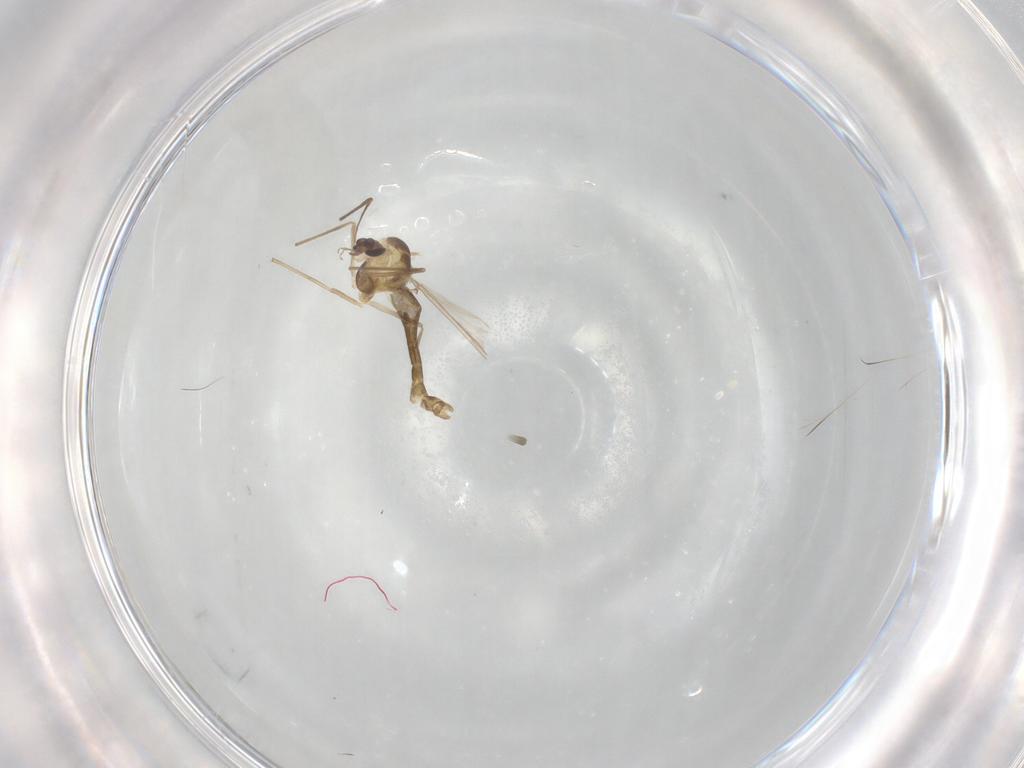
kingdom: Animalia
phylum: Arthropoda
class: Insecta
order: Diptera
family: Chironomidae
